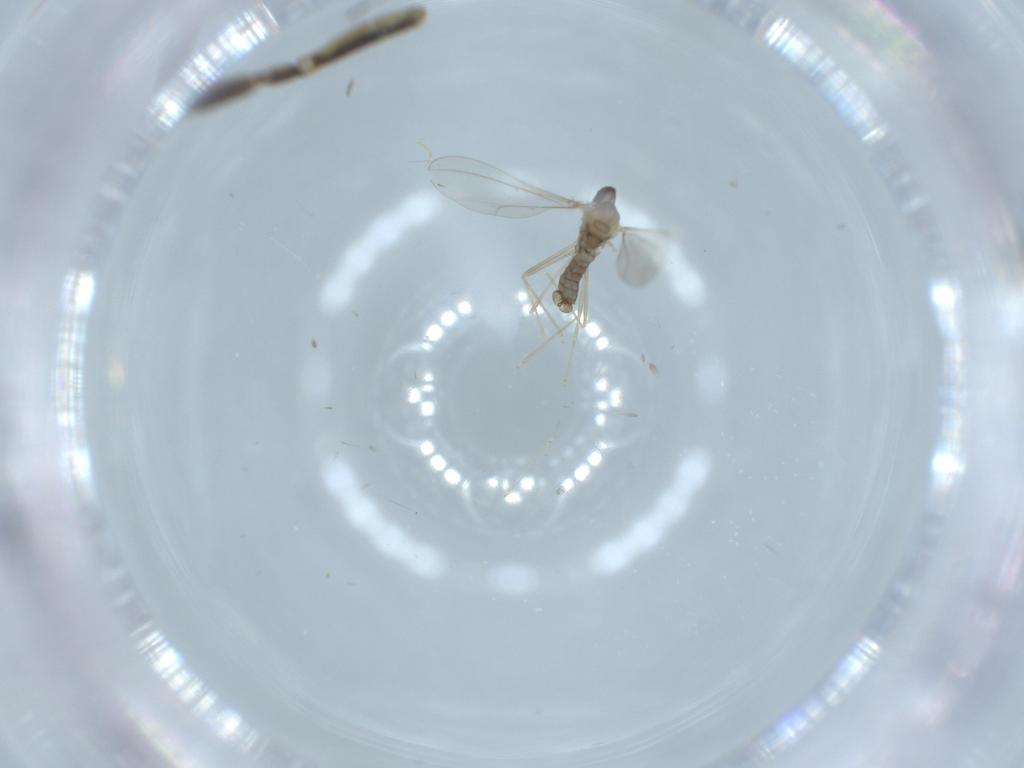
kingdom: Animalia
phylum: Arthropoda
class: Insecta
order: Diptera
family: Cecidomyiidae
